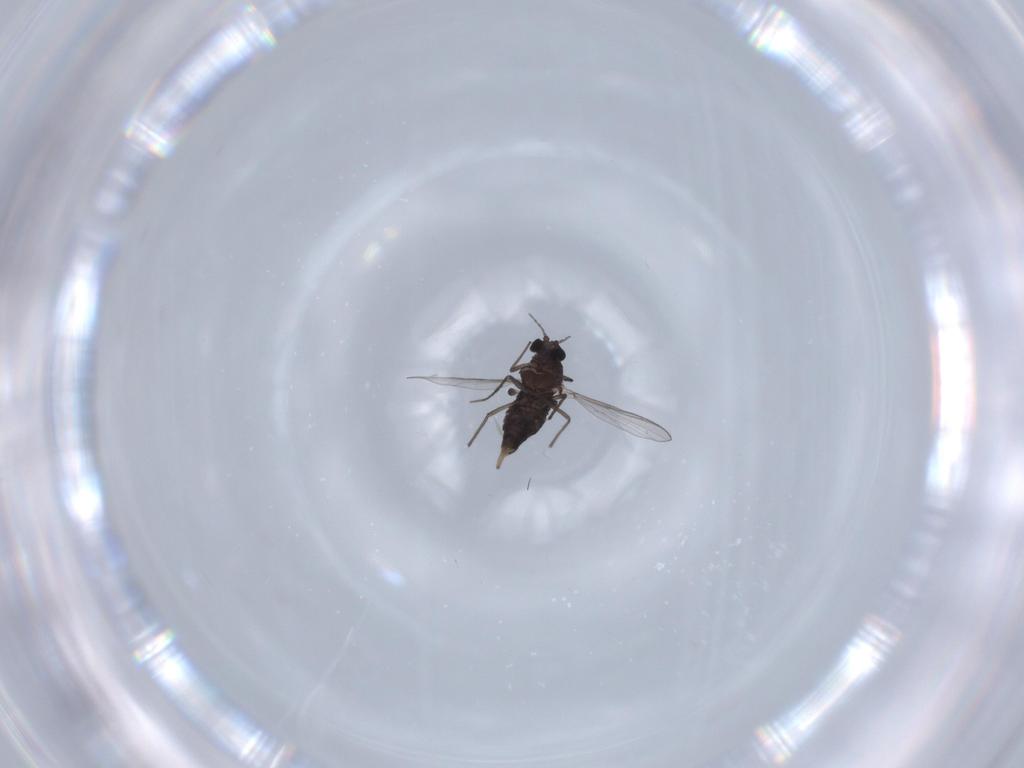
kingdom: Animalia
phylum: Arthropoda
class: Insecta
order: Diptera
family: Chironomidae
